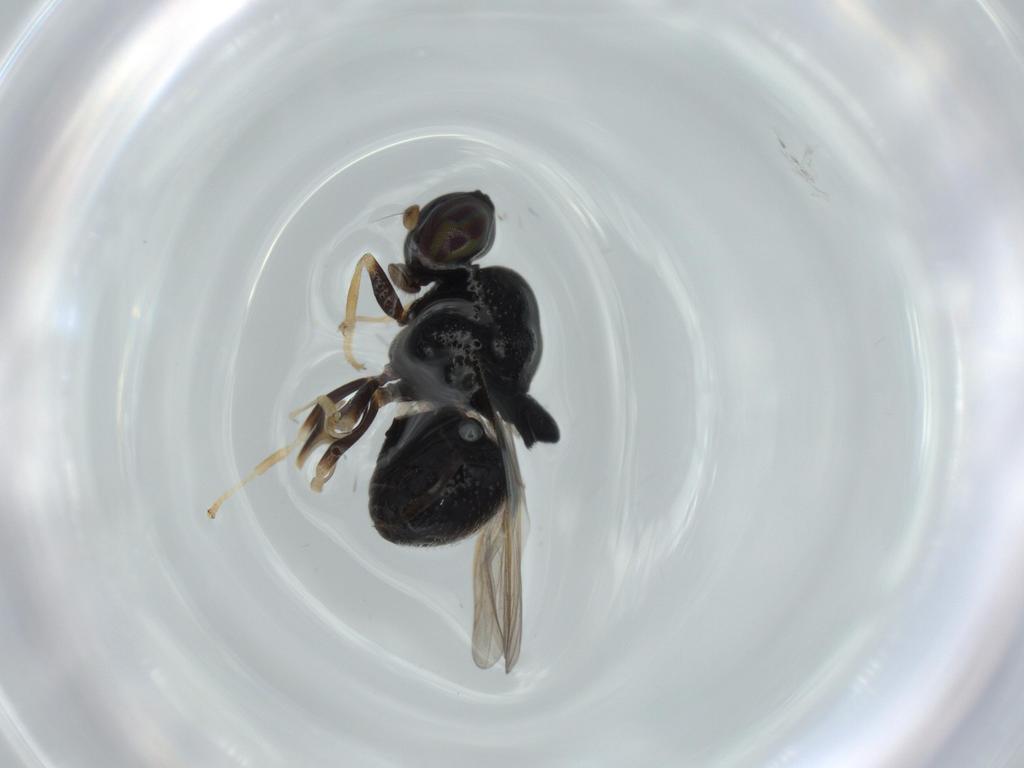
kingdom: Animalia
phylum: Arthropoda
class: Insecta
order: Diptera
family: Stratiomyidae
